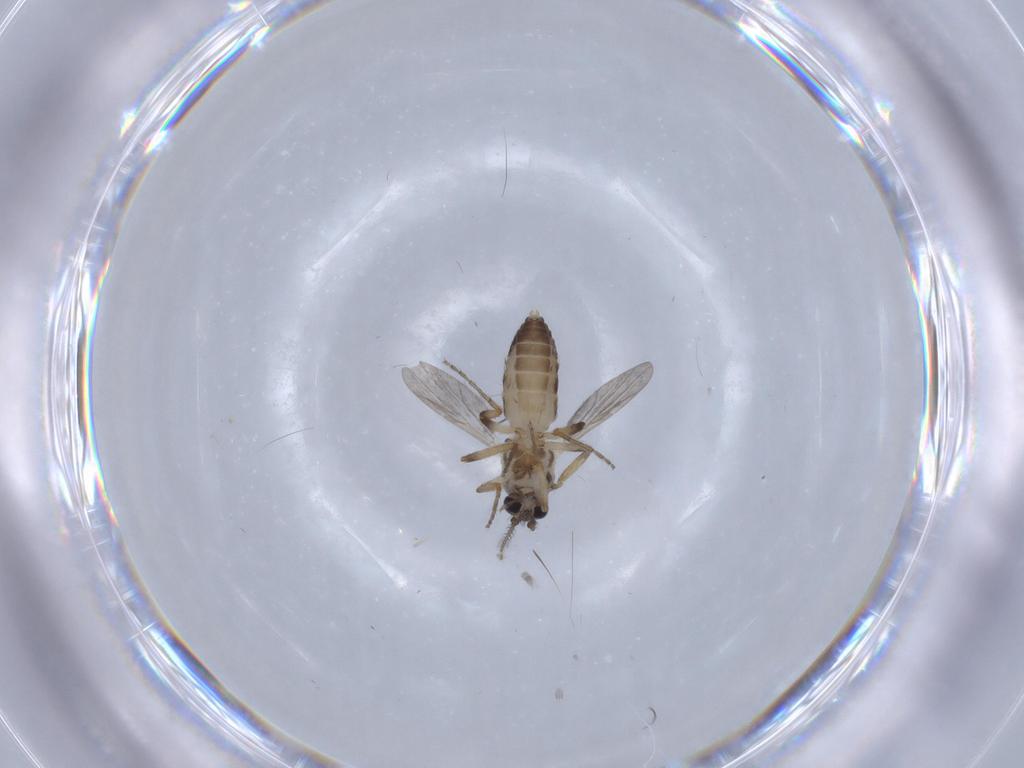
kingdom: Animalia
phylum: Arthropoda
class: Insecta
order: Diptera
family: Ceratopogonidae
